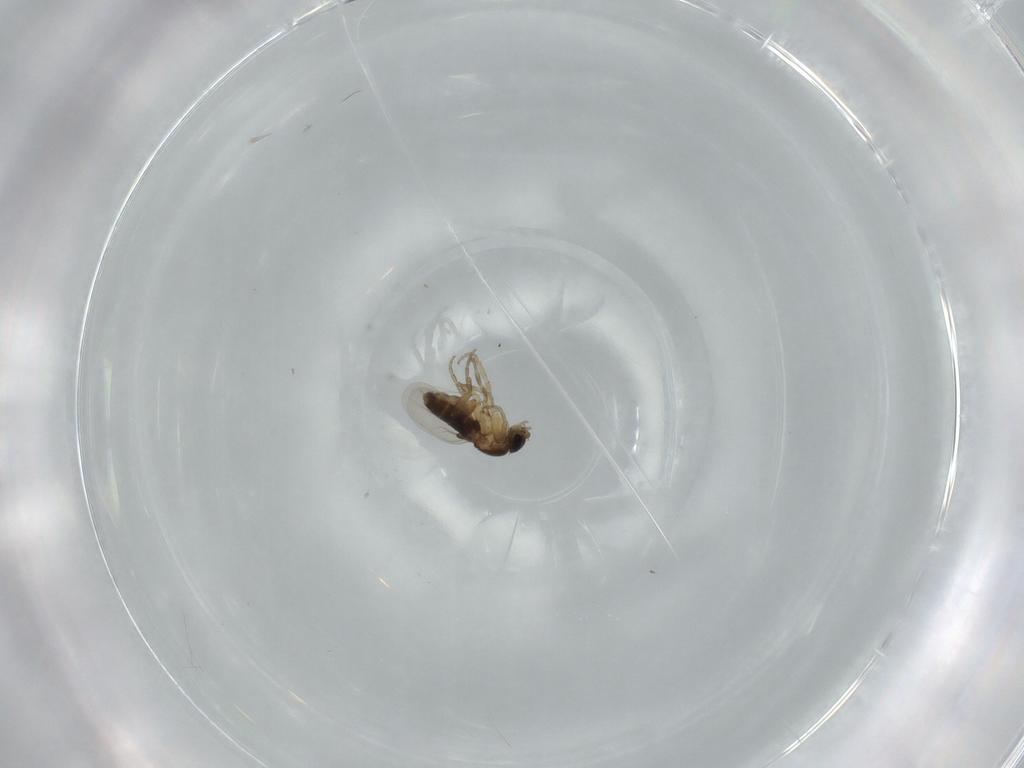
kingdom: Animalia
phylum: Arthropoda
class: Insecta
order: Diptera
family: Phoridae
